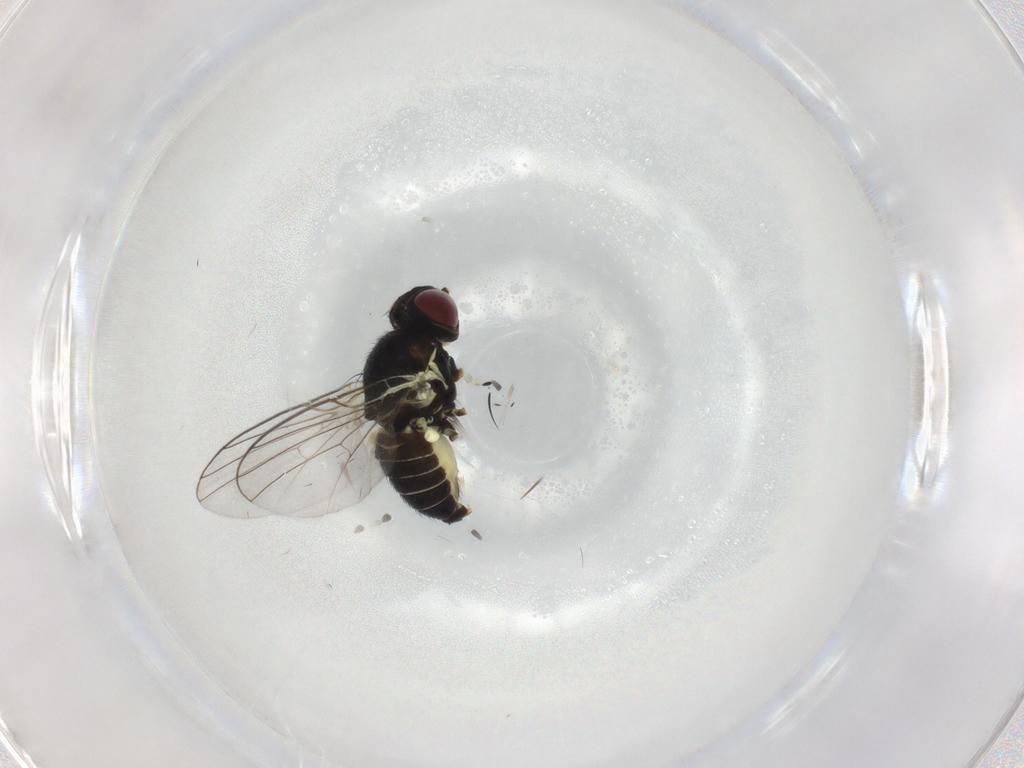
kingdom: Animalia
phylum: Arthropoda
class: Insecta
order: Diptera
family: Agromyzidae
